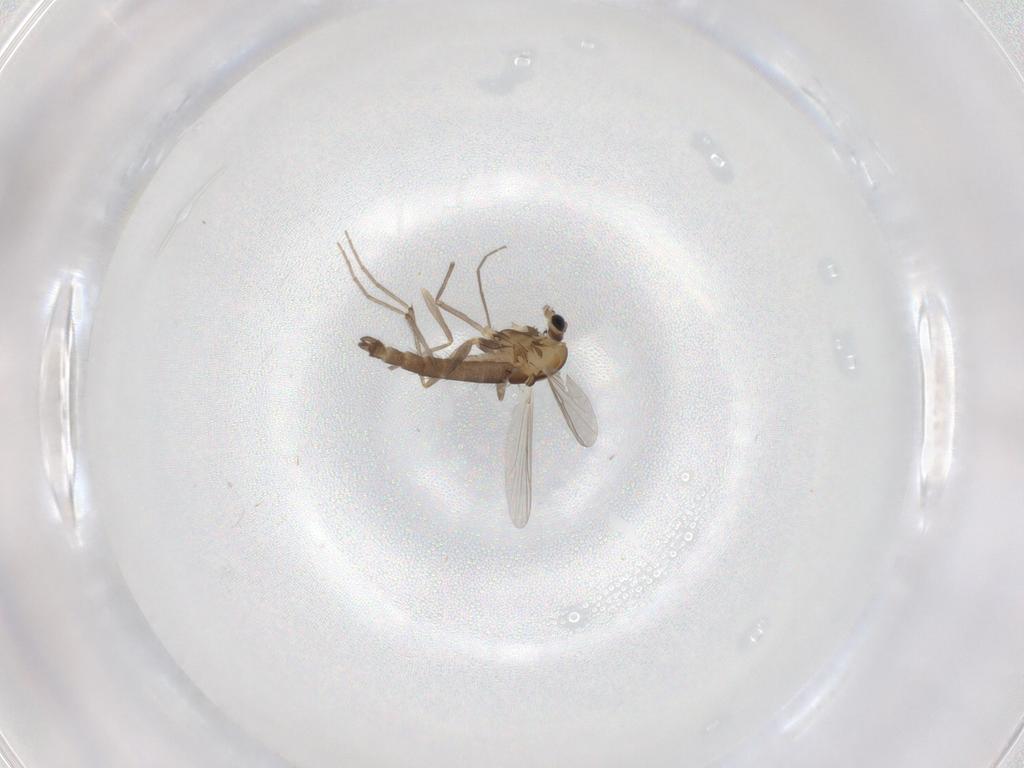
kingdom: Animalia
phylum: Arthropoda
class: Insecta
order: Diptera
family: Chironomidae
